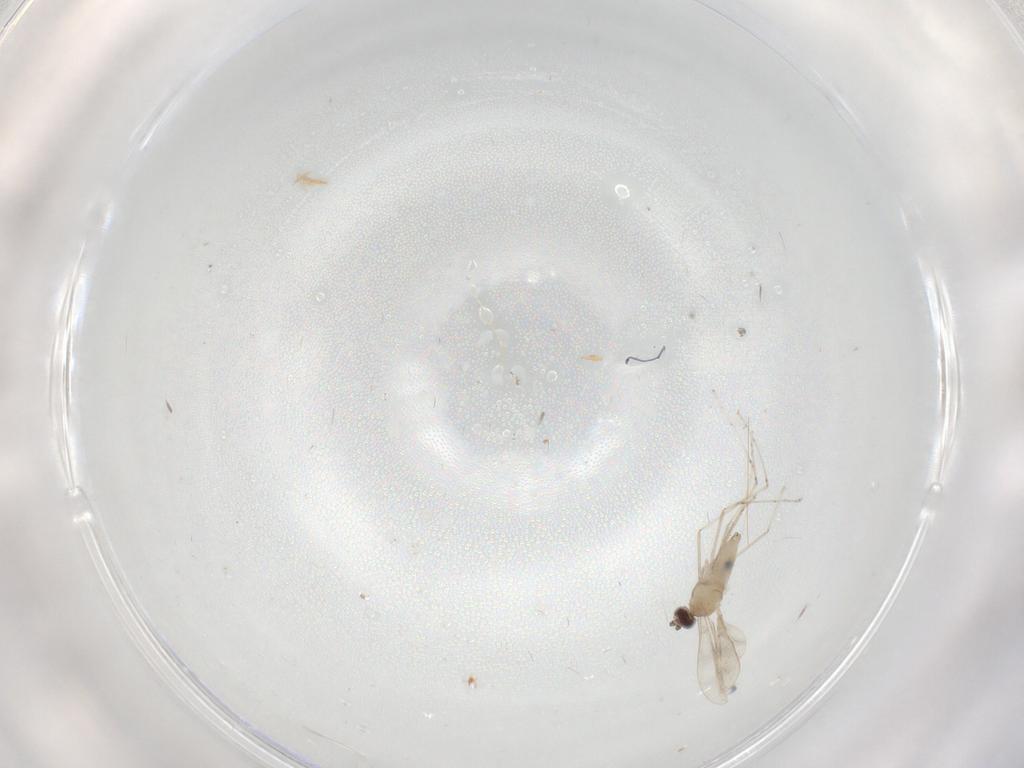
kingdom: Animalia
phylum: Arthropoda
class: Insecta
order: Diptera
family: Cecidomyiidae
